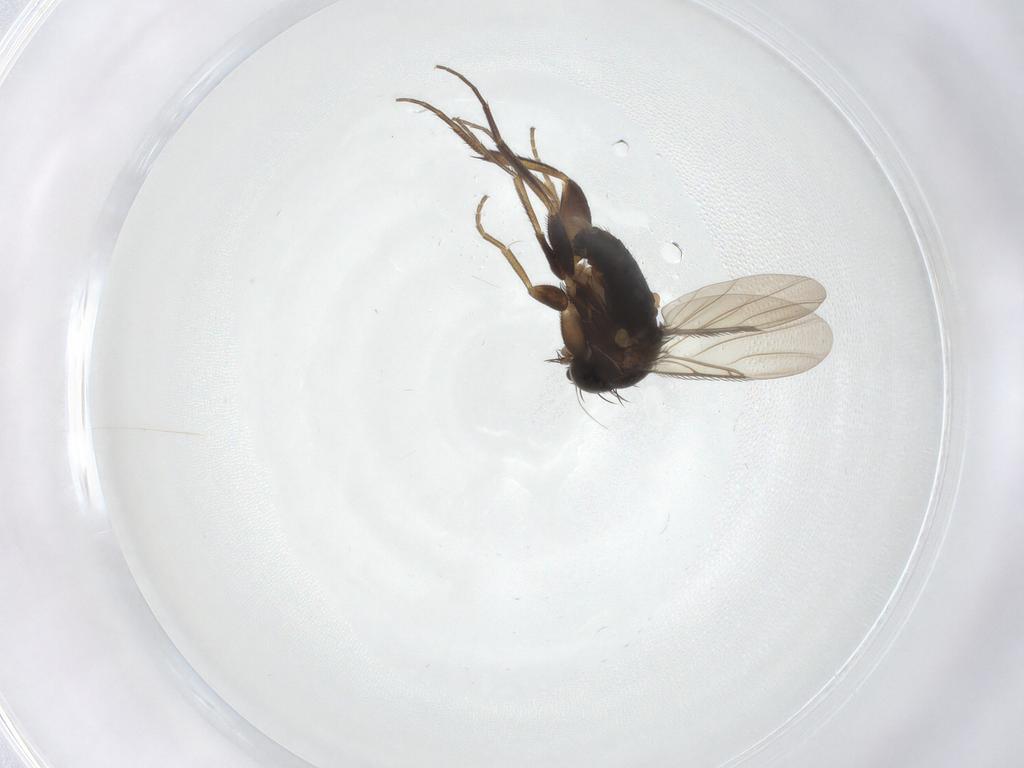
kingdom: Animalia
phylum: Arthropoda
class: Insecta
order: Diptera
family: Phoridae
